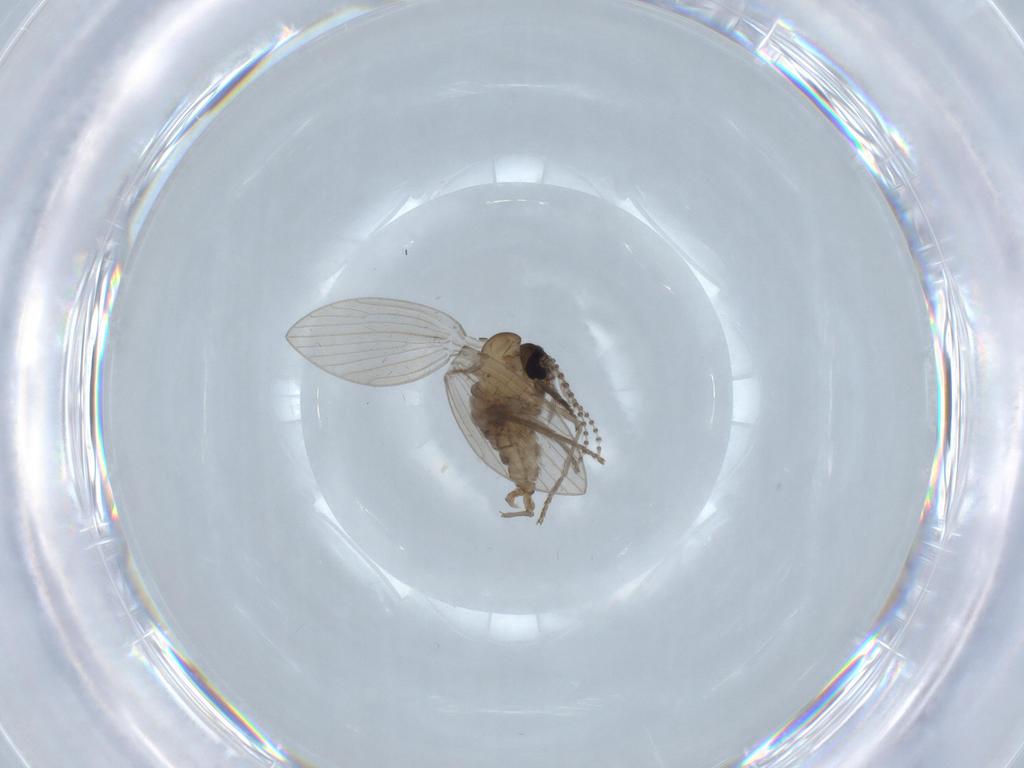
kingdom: Animalia
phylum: Arthropoda
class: Insecta
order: Diptera
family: Psychodidae
